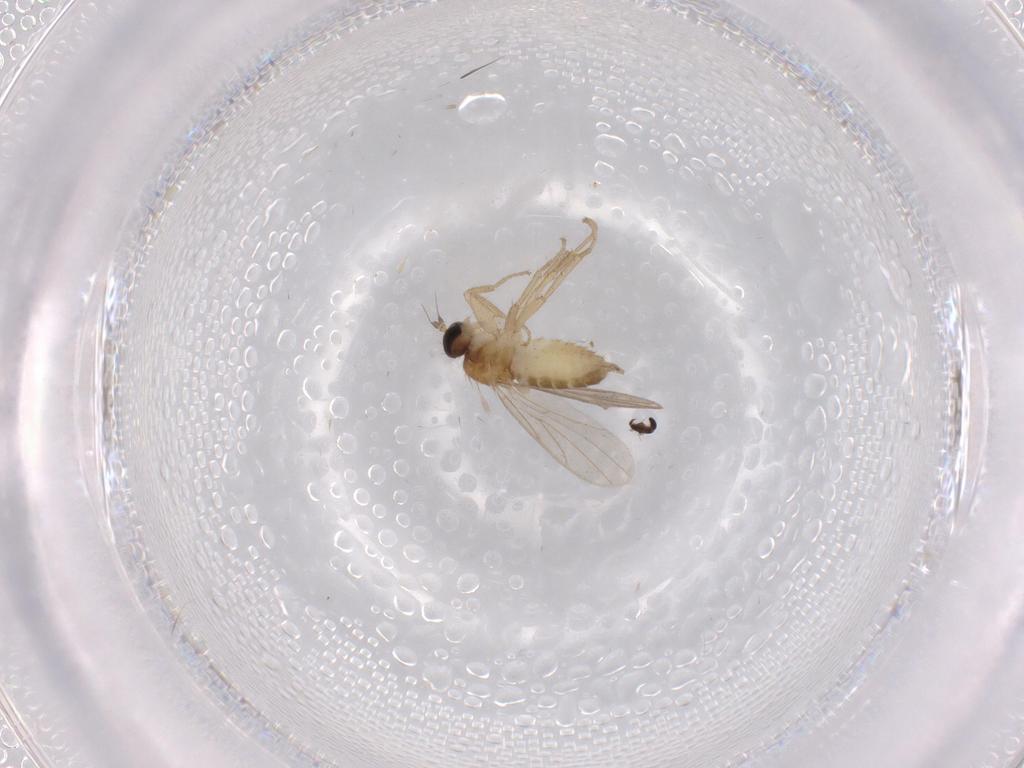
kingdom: Animalia
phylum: Arthropoda
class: Insecta
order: Diptera
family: Hybotidae
